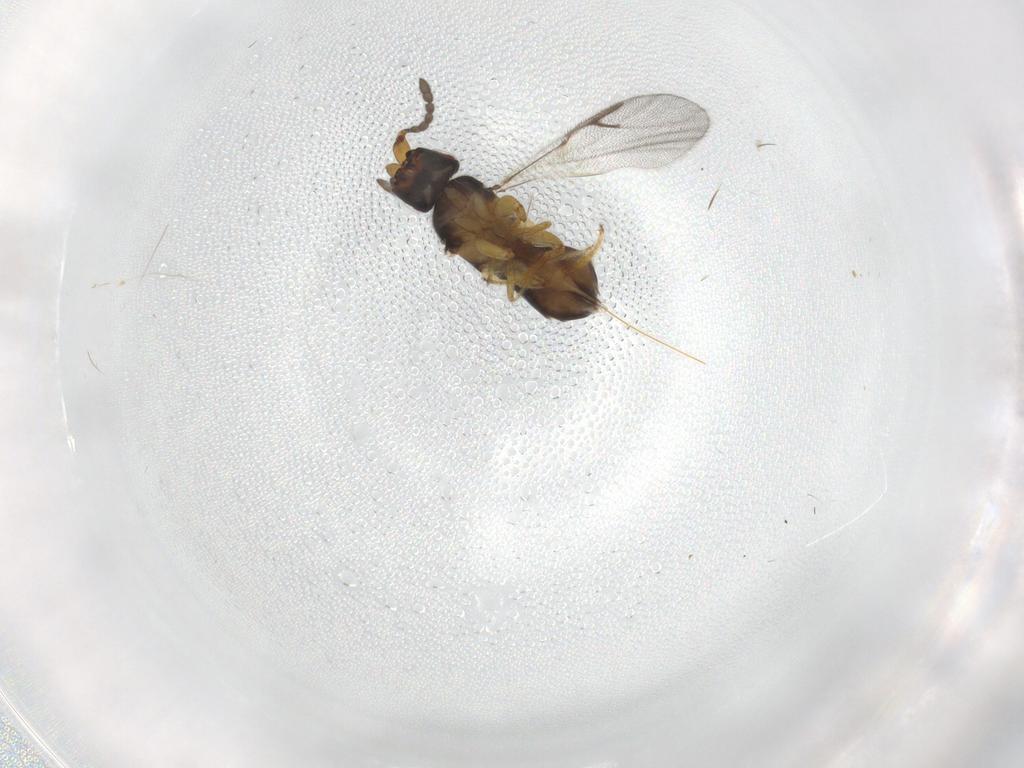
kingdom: Animalia
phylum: Arthropoda
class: Insecta
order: Hymenoptera
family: Agaonidae
